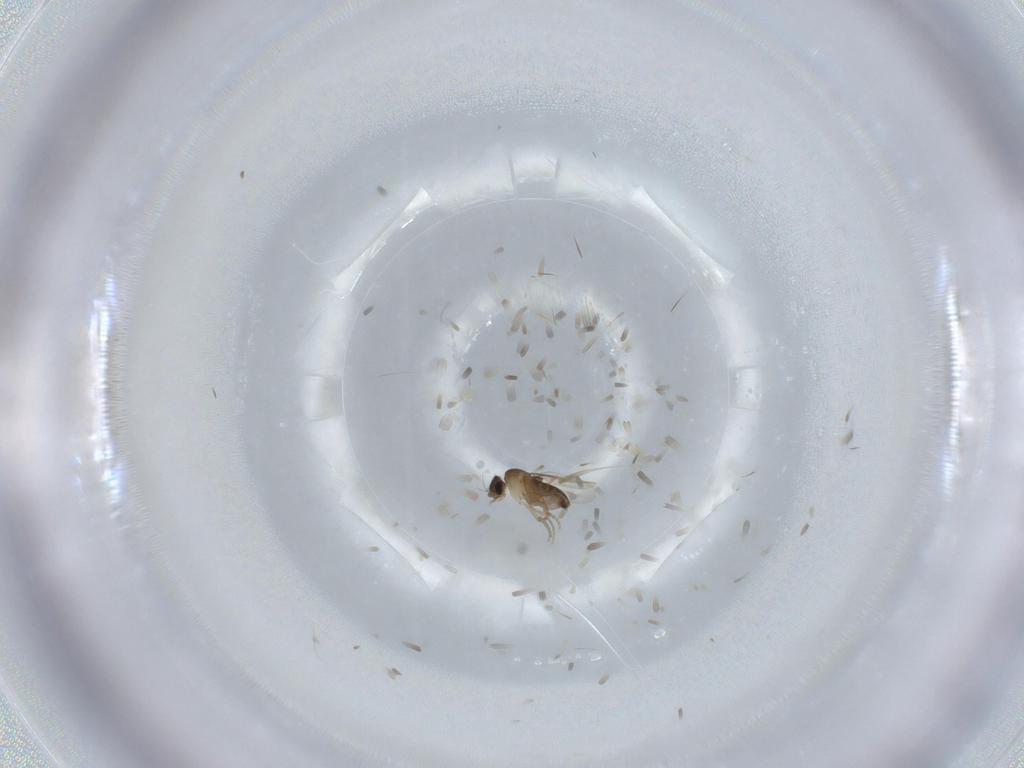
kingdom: Animalia
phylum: Arthropoda
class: Insecta
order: Diptera
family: Phoridae
